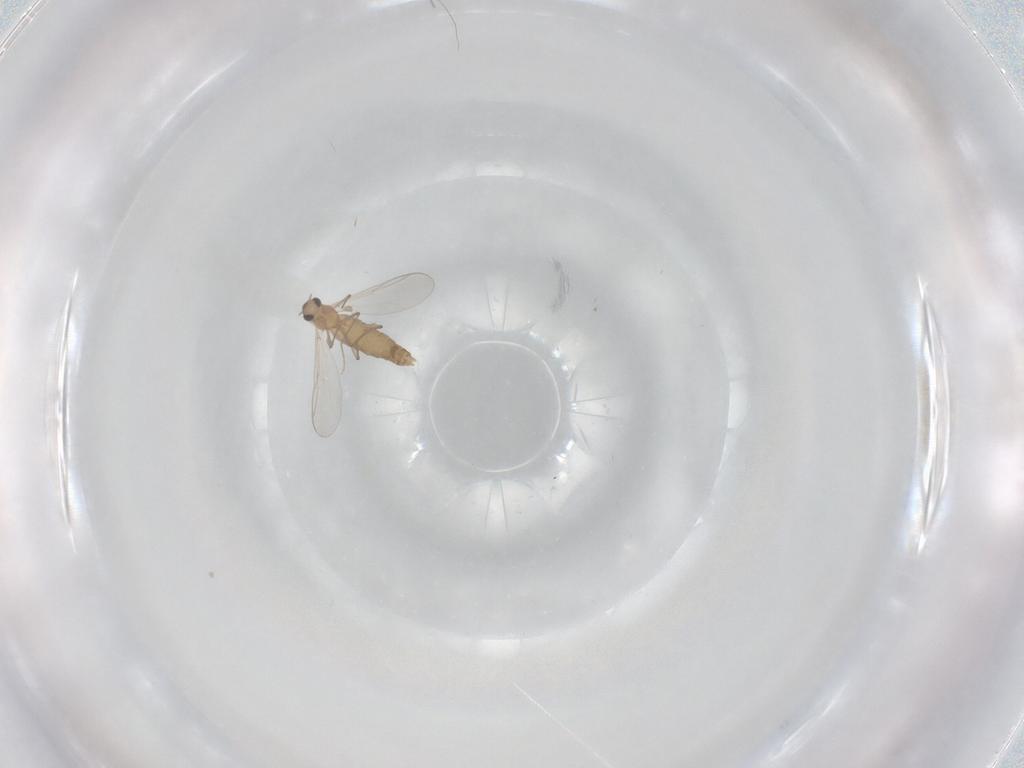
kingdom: Animalia
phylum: Arthropoda
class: Insecta
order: Diptera
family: Chironomidae
